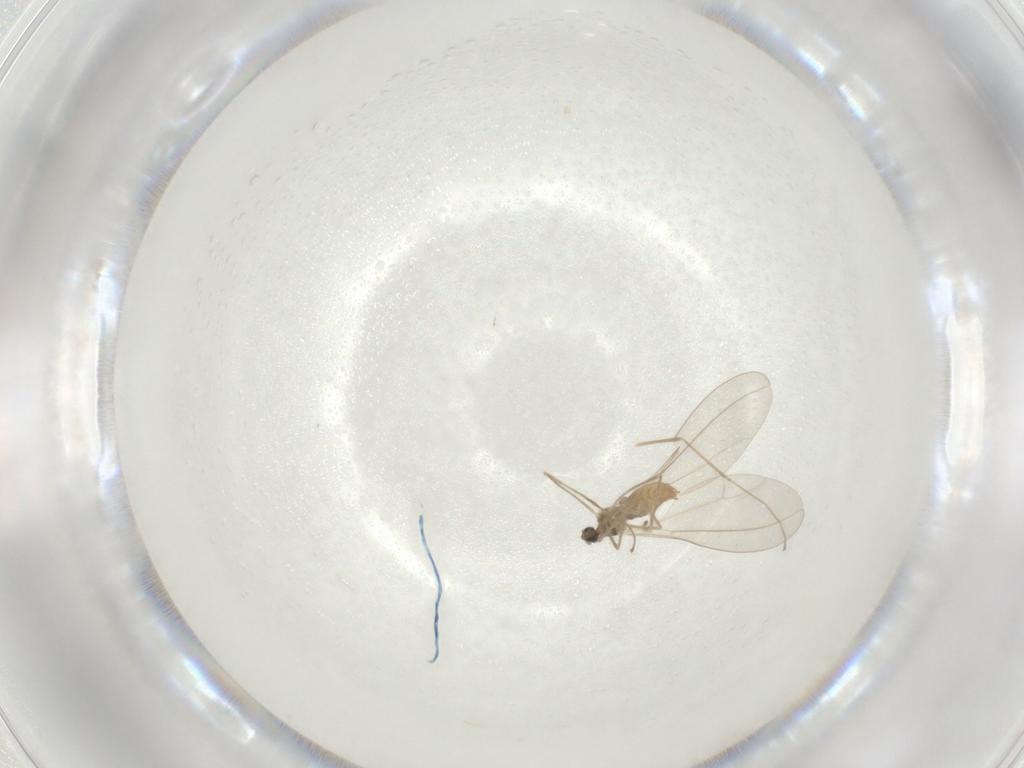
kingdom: Animalia
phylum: Arthropoda
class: Insecta
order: Diptera
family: Cecidomyiidae
